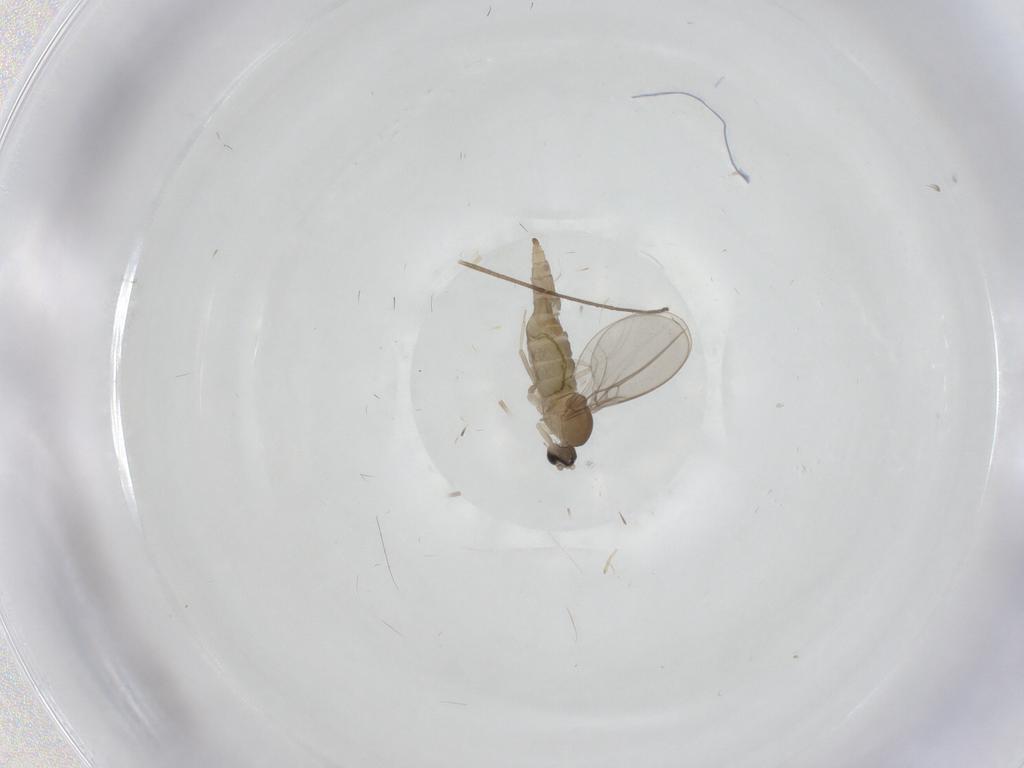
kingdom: Animalia
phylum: Arthropoda
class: Insecta
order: Diptera
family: Cecidomyiidae
